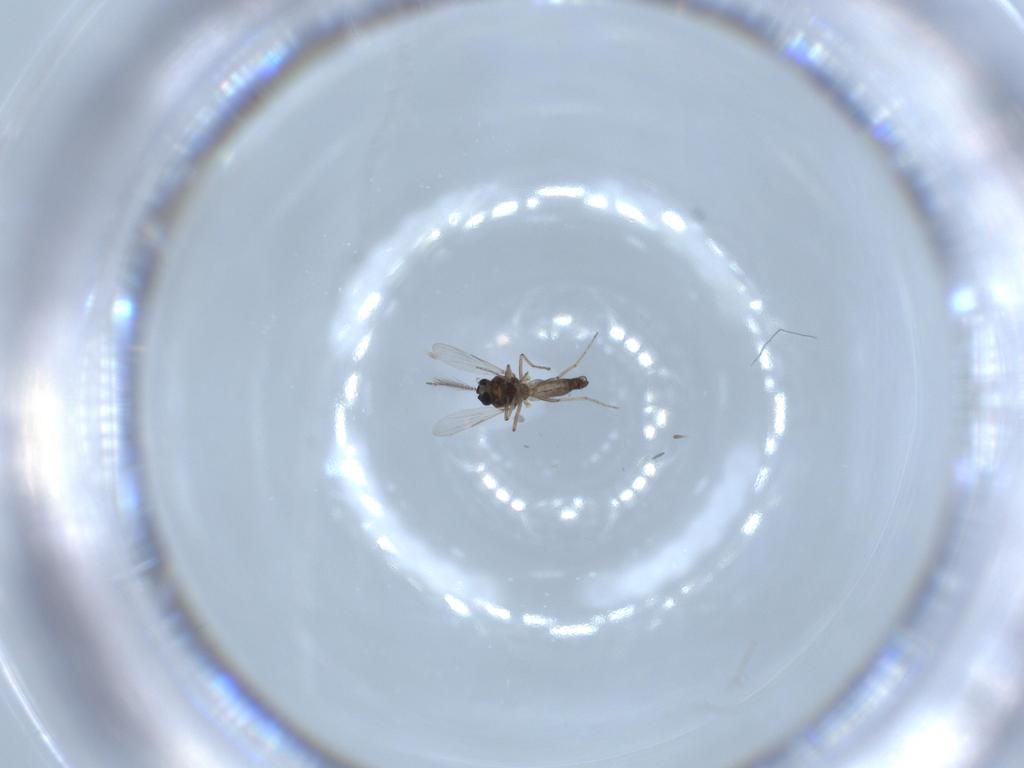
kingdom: Animalia
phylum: Arthropoda
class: Insecta
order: Diptera
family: Ceratopogonidae
